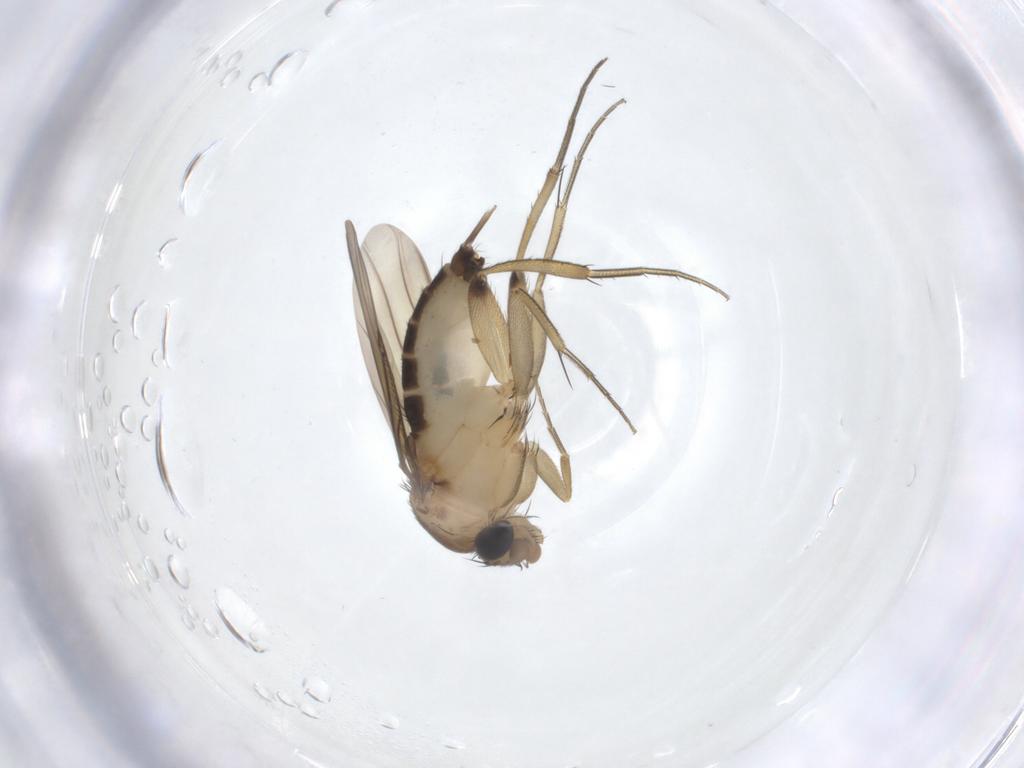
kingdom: Animalia
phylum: Arthropoda
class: Insecta
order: Diptera
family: Phoridae
